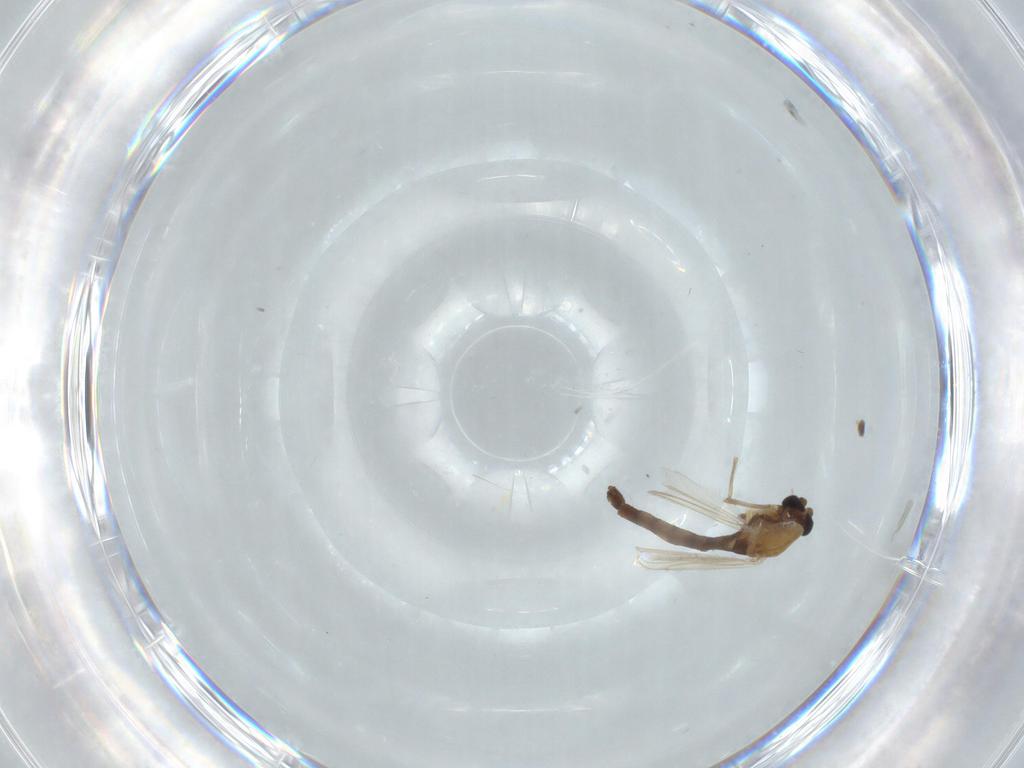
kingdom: Animalia
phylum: Arthropoda
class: Insecta
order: Diptera
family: Chironomidae
